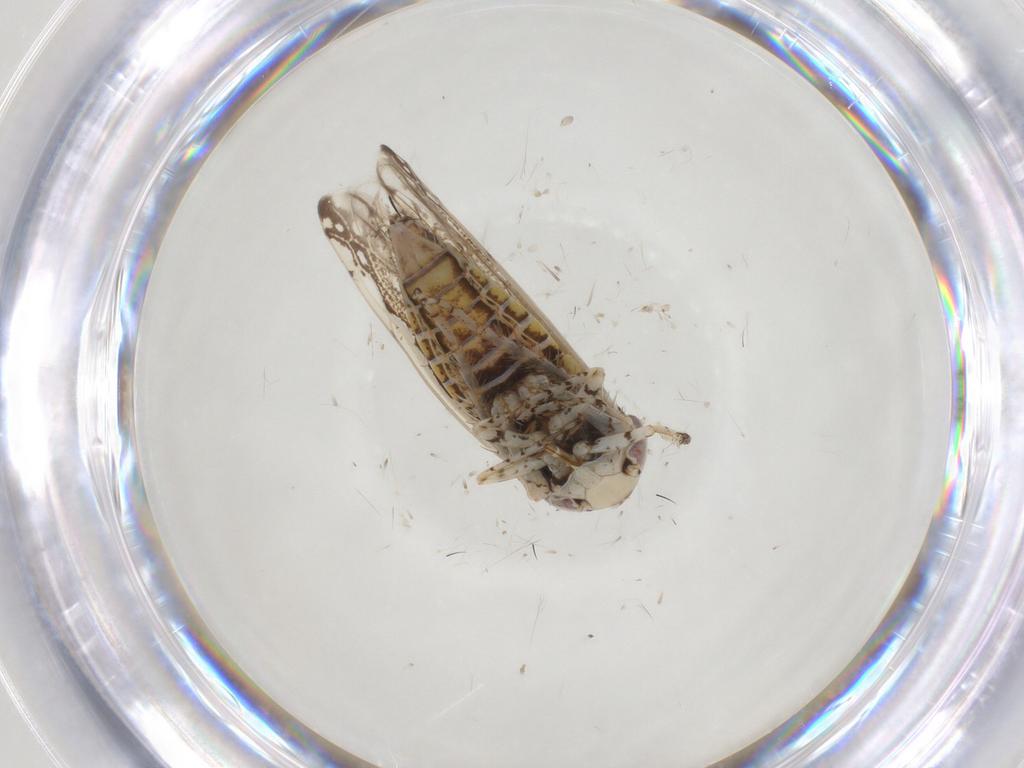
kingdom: Animalia
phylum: Arthropoda
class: Insecta
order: Hemiptera
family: Cicadellidae
